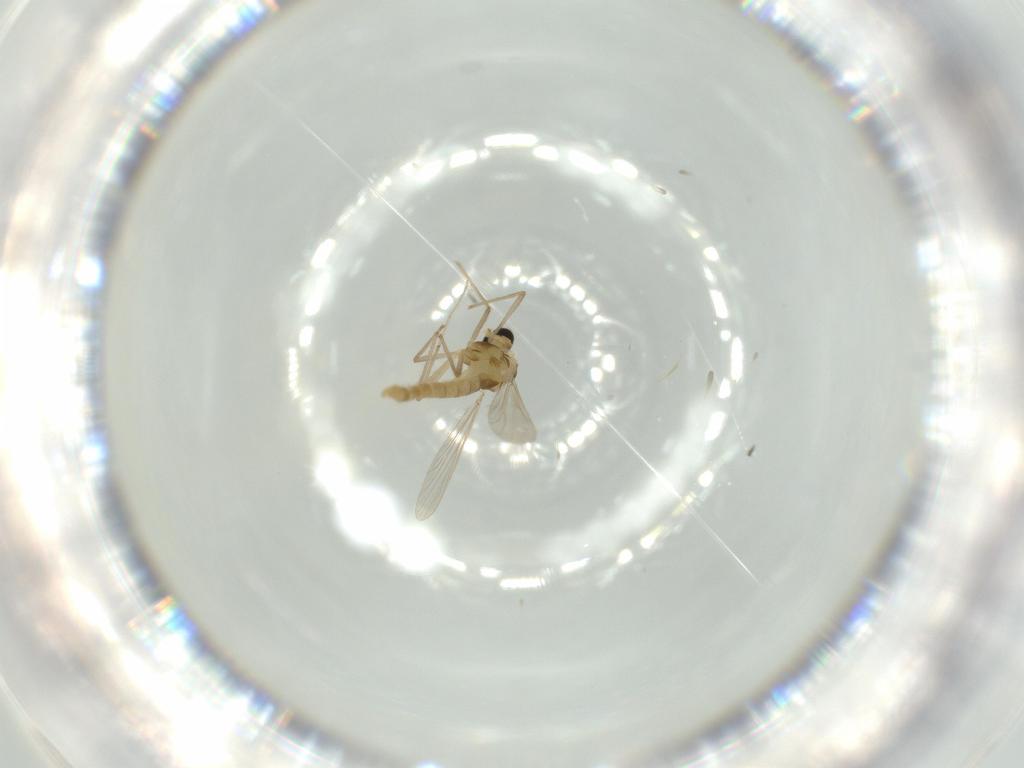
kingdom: Animalia
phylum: Arthropoda
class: Insecta
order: Diptera
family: Chironomidae
